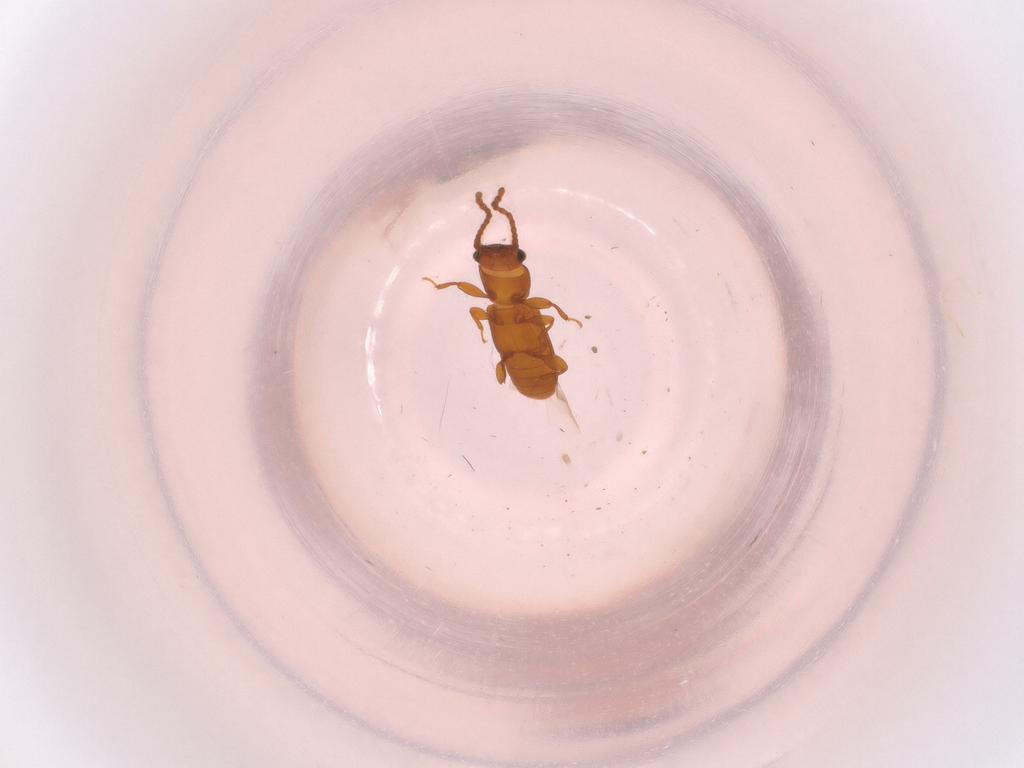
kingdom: Animalia
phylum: Arthropoda
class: Insecta
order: Coleoptera
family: Laemophloeidae
